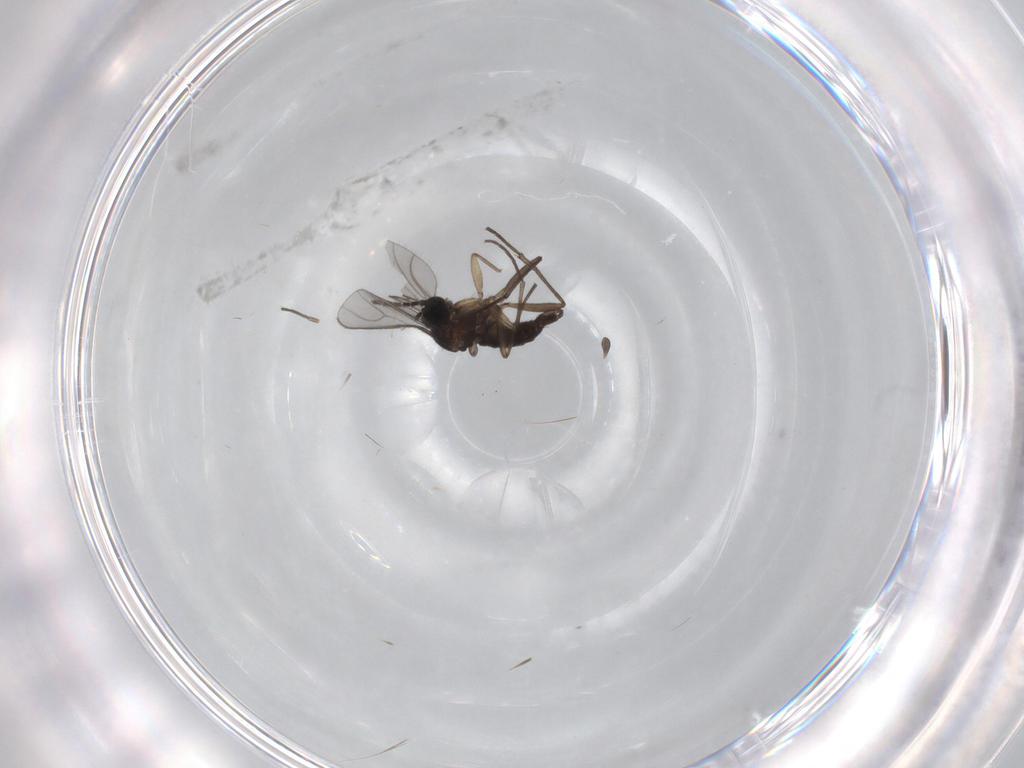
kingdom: Animalia
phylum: Arthropoda
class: Insecta
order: Diptera
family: Sciaridae
